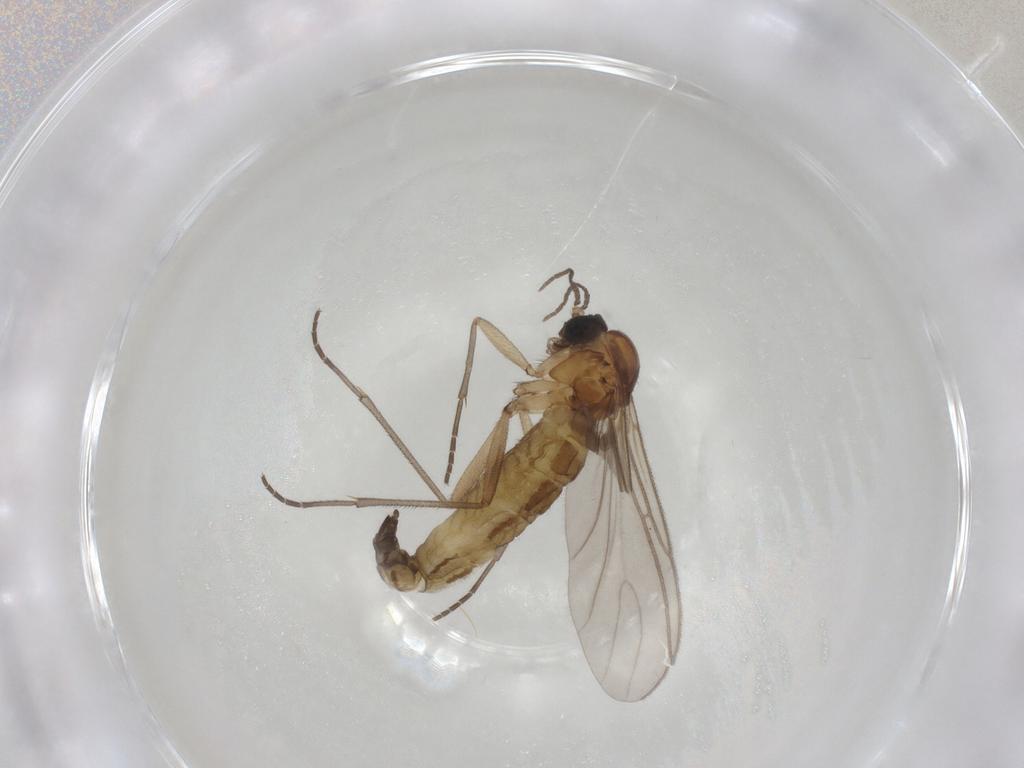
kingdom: Animalia
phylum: Arthropoda
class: Insecta
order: Diptera
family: Sciaridae
